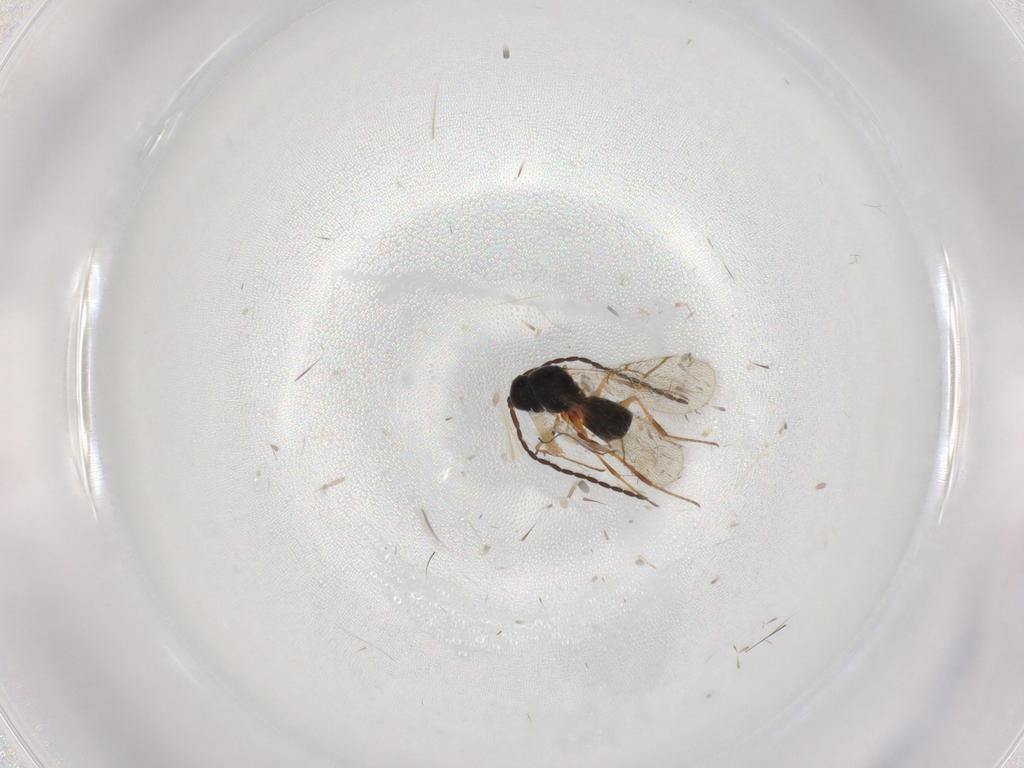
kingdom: Animalia
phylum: Arthropoda
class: Insecta
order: Hymenoptera
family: Figitidae
